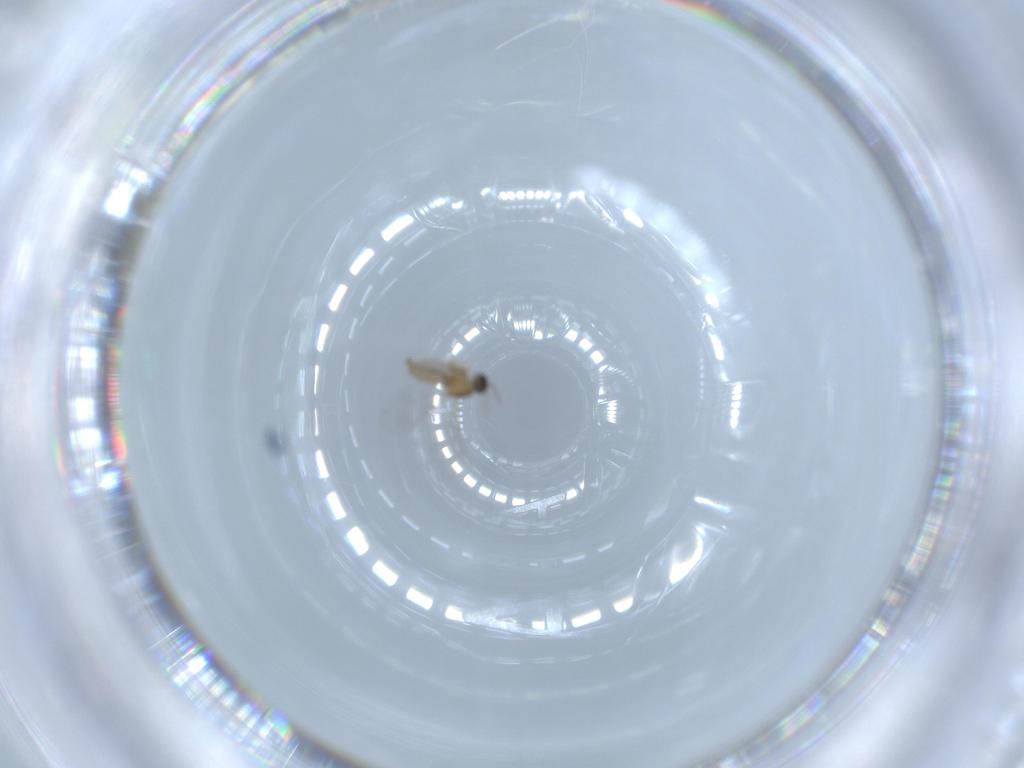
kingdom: Animalia
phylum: Arthropoda
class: Insecta
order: Diptera
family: Cecidomyiidae
